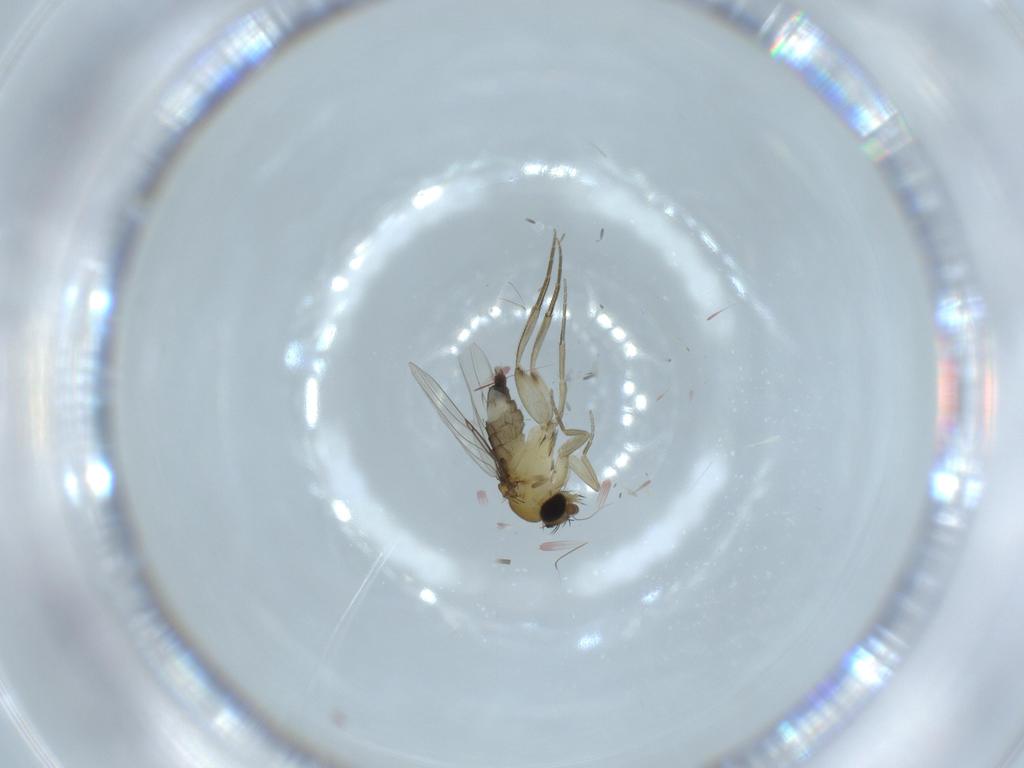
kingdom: Animalia
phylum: Arthropoda
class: Insecta
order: Diptera
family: Phoridae
